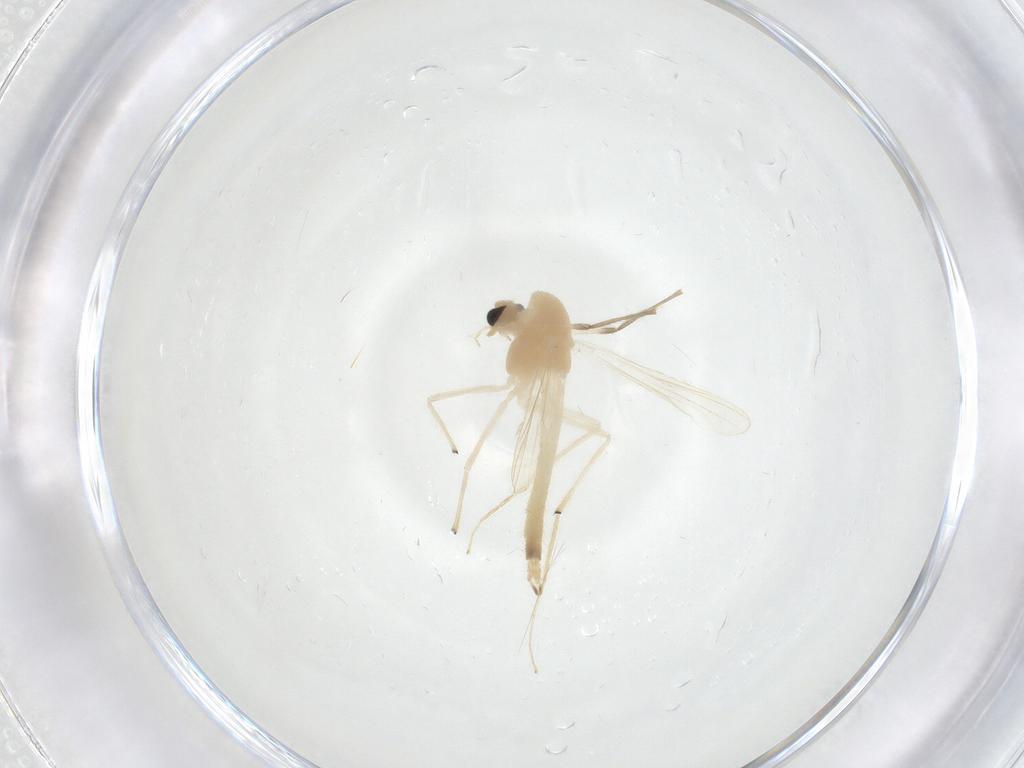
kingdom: Animalia
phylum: Arthropoda
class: Insecta
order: Diptera
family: Chironomidae
